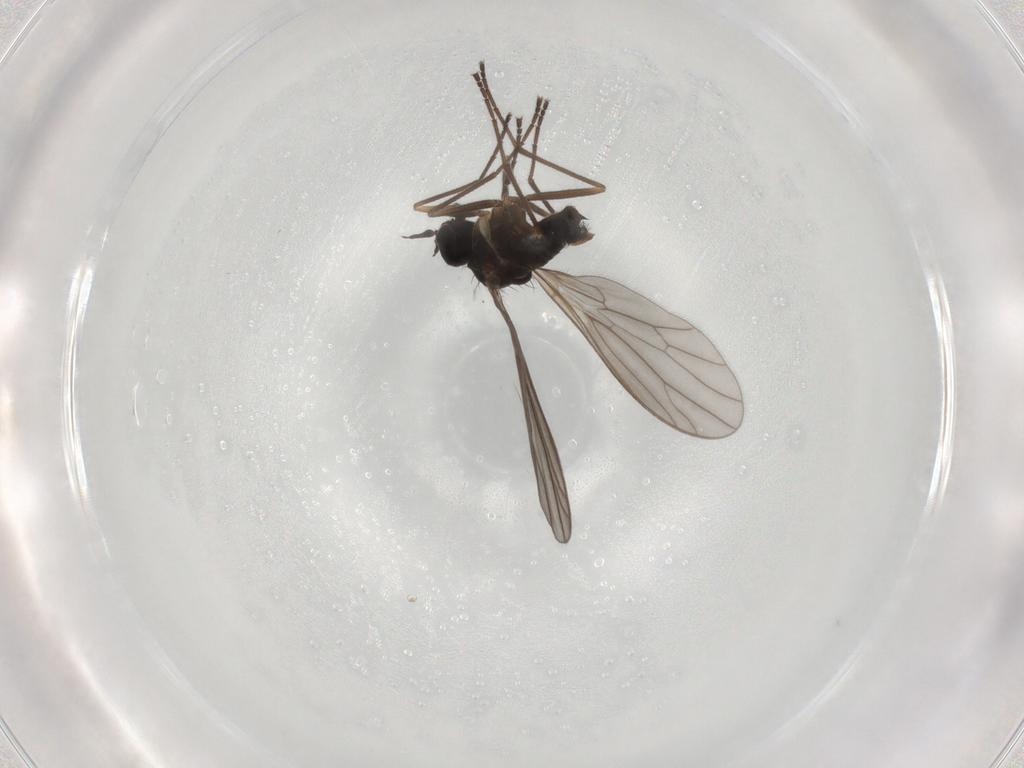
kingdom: Animalia
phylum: Arthropoda
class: Insecta
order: Diptera
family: Empididae
